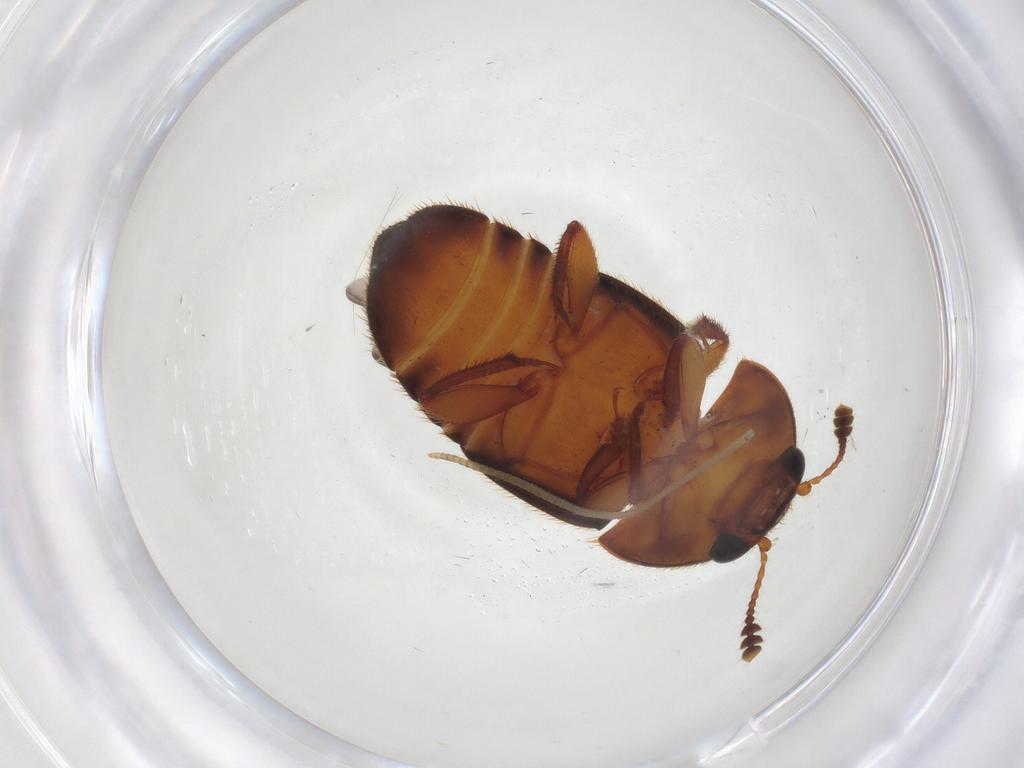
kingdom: Animalia
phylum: Arthropoda
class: Insecta
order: Coleoptera
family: Nitidulidae
